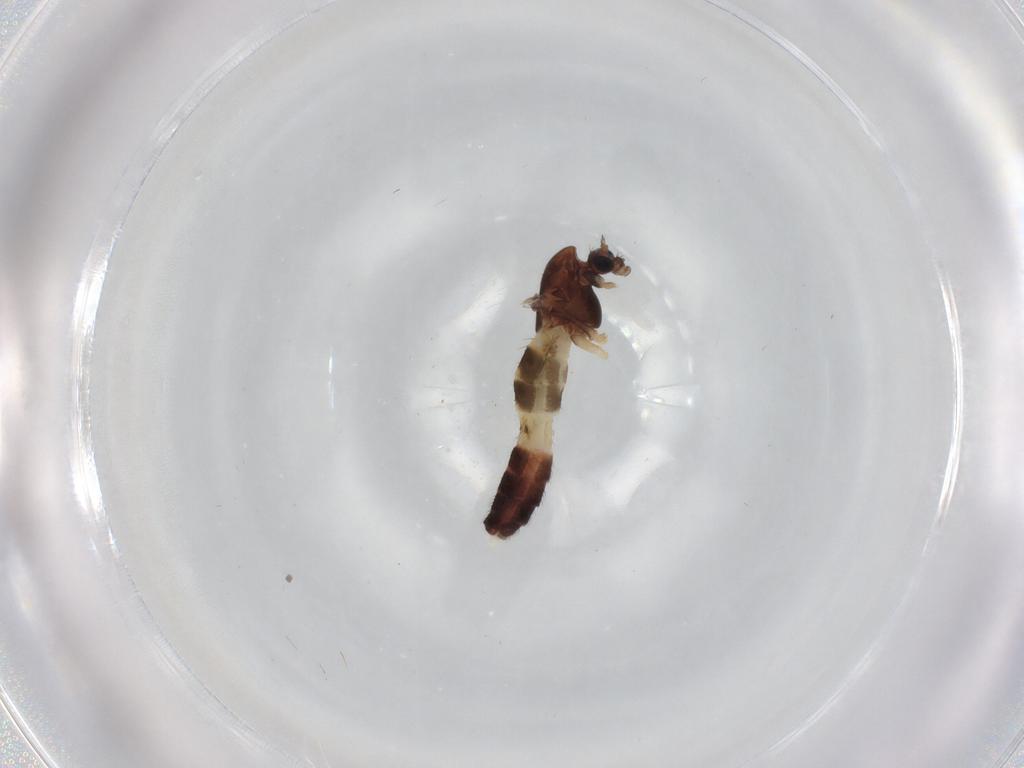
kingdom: Animalia
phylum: Arthropoda
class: Insecta
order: Diptera
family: Chironomidae
